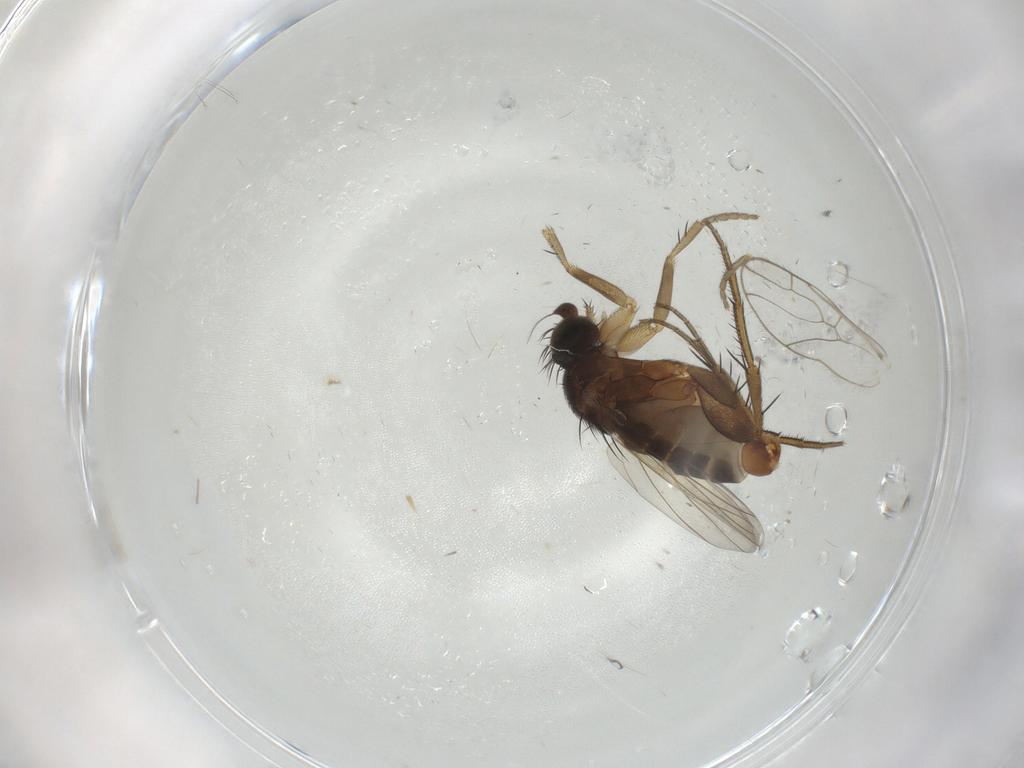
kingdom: Animalia
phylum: Arthropoda
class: Insecta
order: Diptera
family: Phoridae
